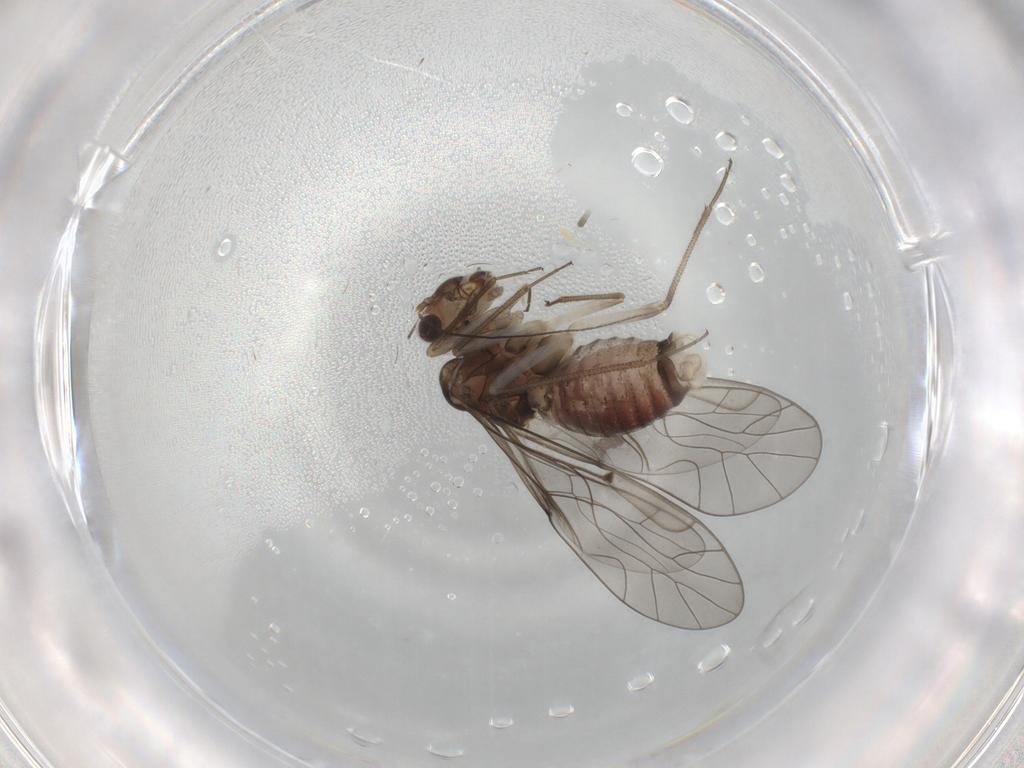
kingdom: Animalia
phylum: Arthropoda
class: Insecta
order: Psocodea
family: Lachesillidae
